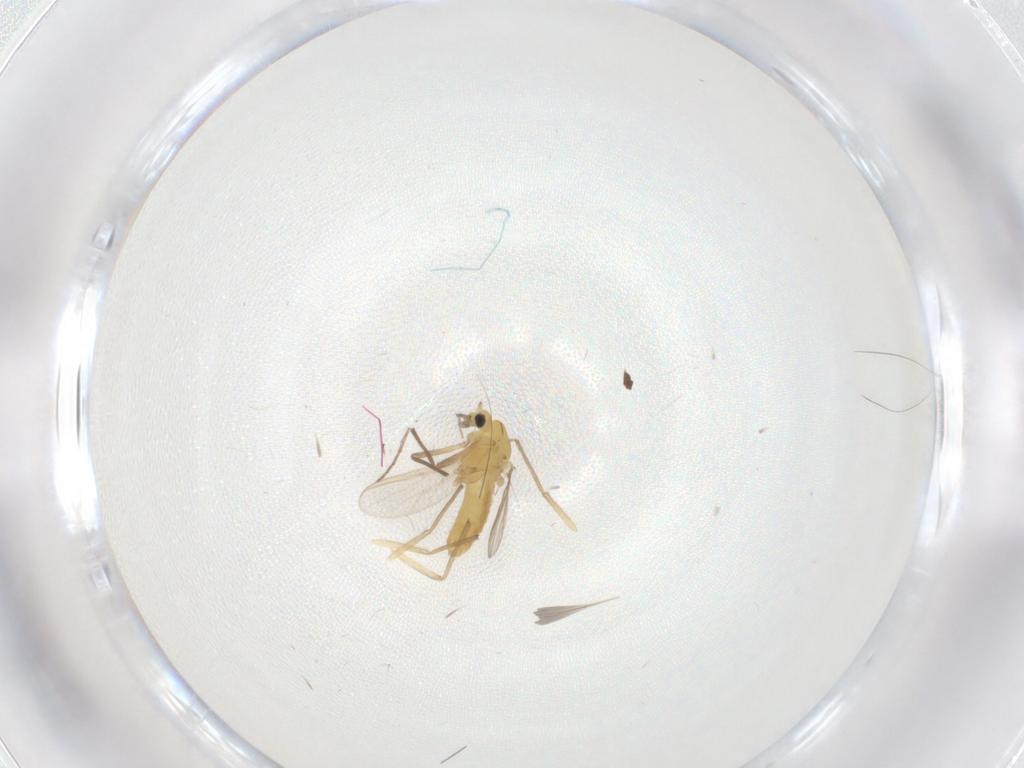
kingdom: Animalia
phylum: Arthropoda
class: Insecta
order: Diptera
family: Chironomidae
